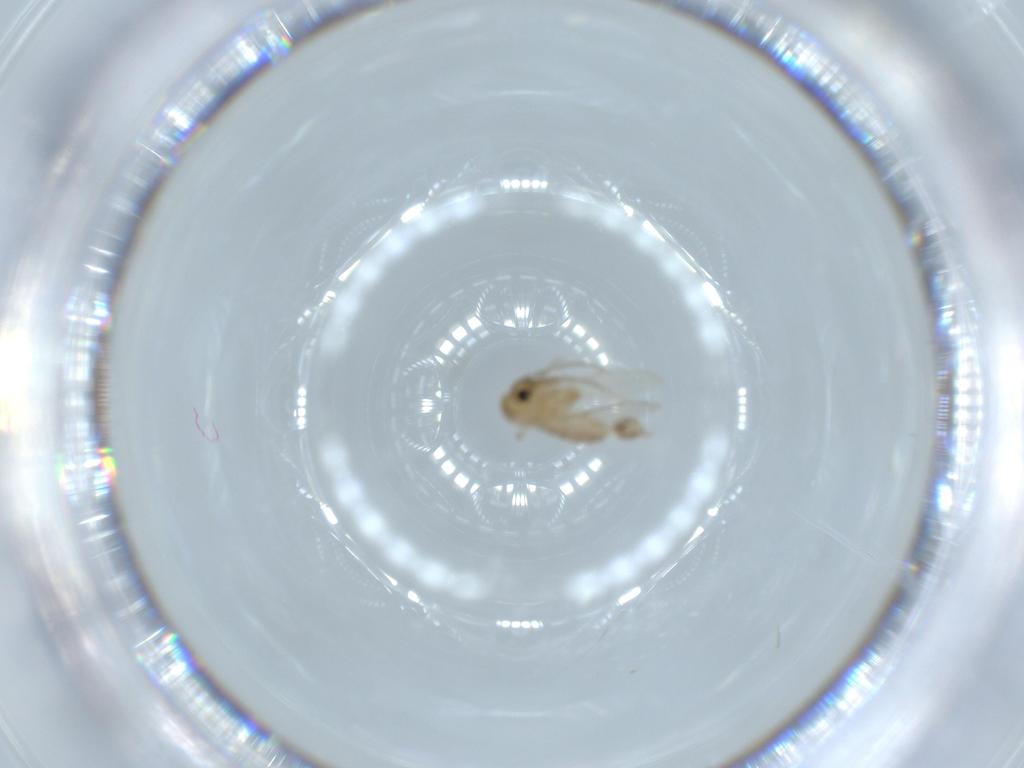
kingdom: Animalia
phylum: Arthropoda
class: Insecta
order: Diptera
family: Psychodidae
